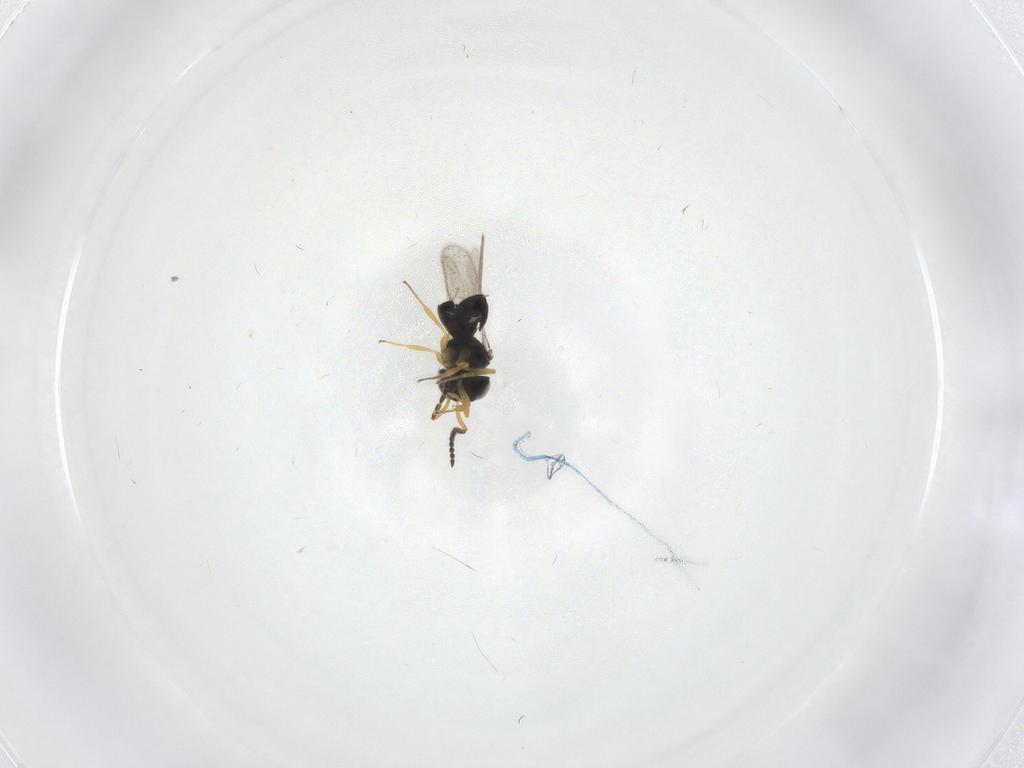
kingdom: Animalia
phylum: Arthropoda
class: Insecta
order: Hymenoptera
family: Scelionidae
